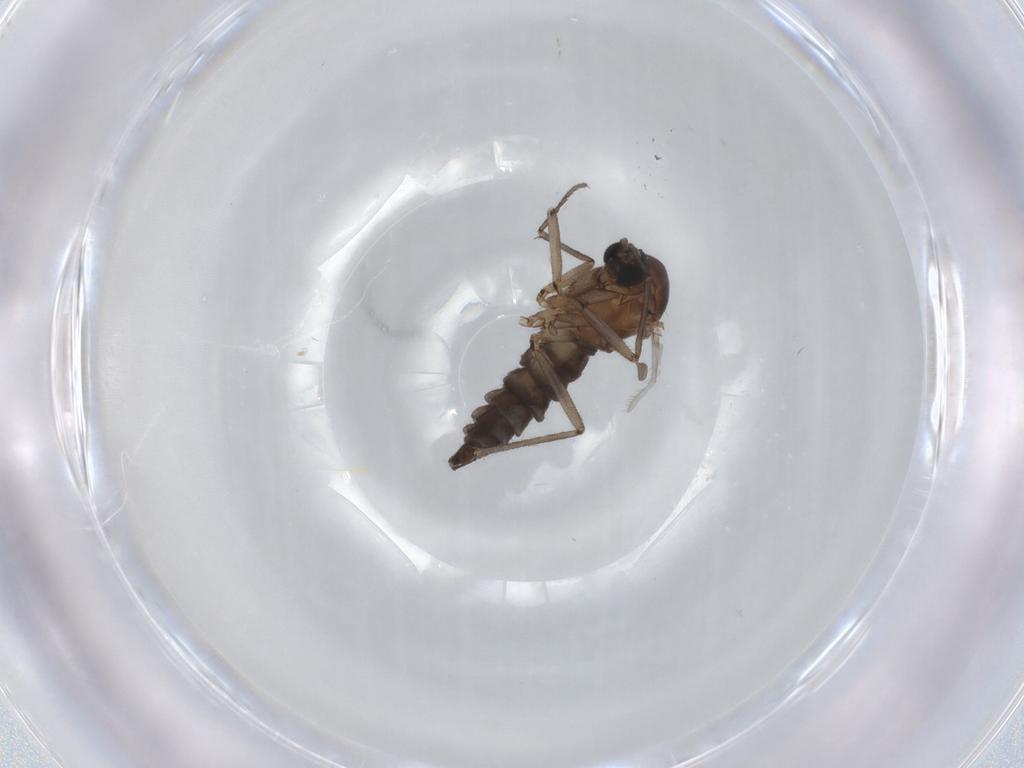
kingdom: Animalia
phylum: Arthropoda
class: Insecta
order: Diptera
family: Sciaridae
